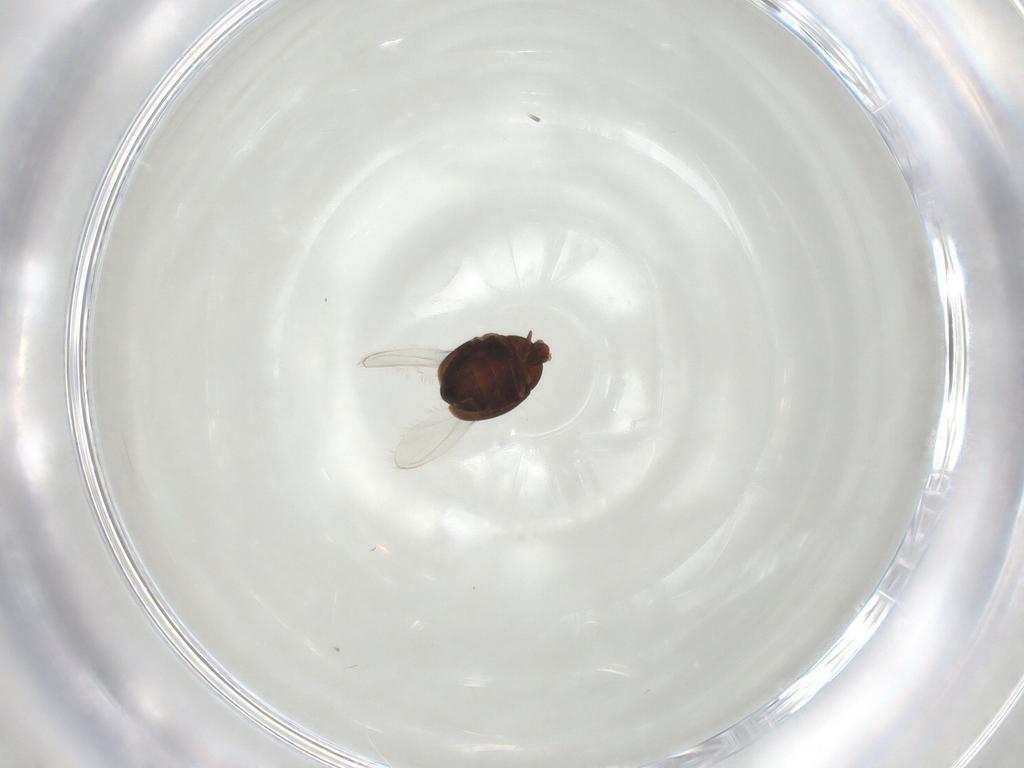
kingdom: Animalia
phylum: Arthropoda
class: Insecta
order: Coleoptera
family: Corylophidae
